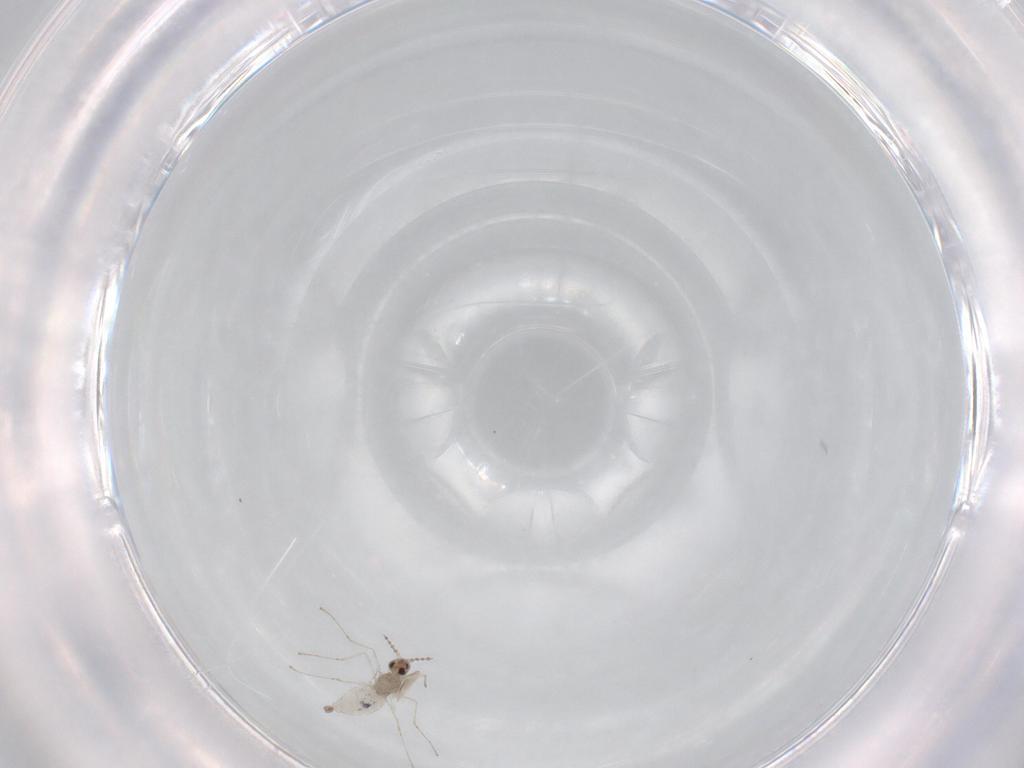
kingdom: Animalia
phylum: Arthropoda
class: Insecta
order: Diptera
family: Cecidomyiidae
